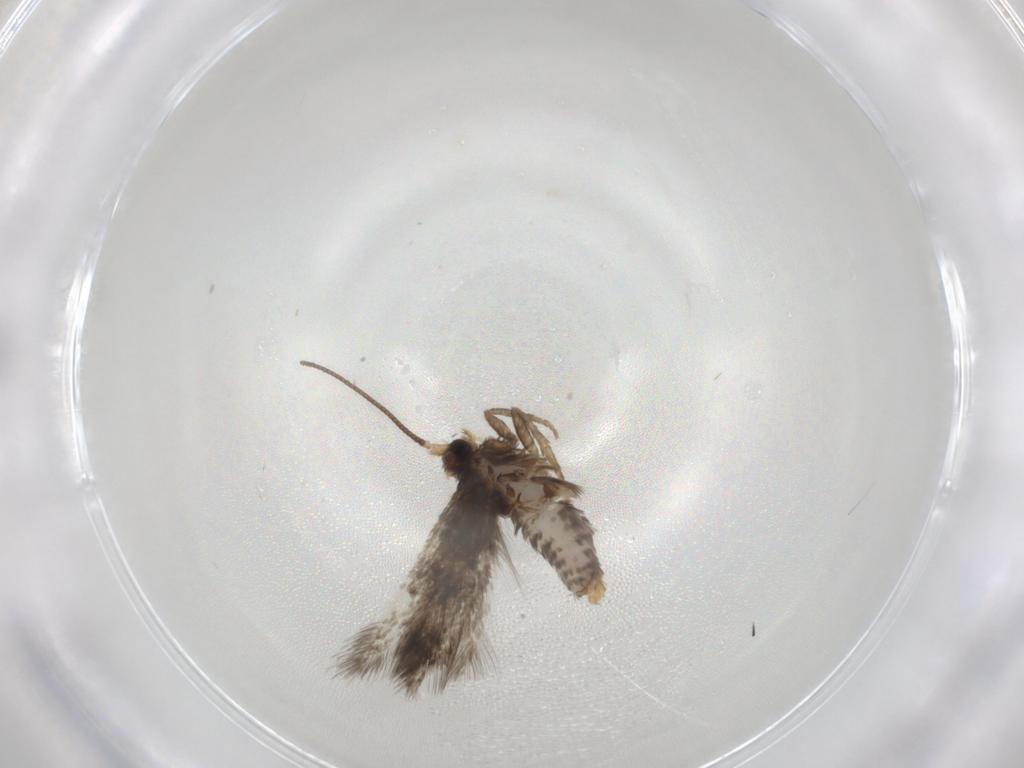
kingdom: Animalia
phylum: Arthropoda
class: Insecta
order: Lepidoptera
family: Nepticulidae
